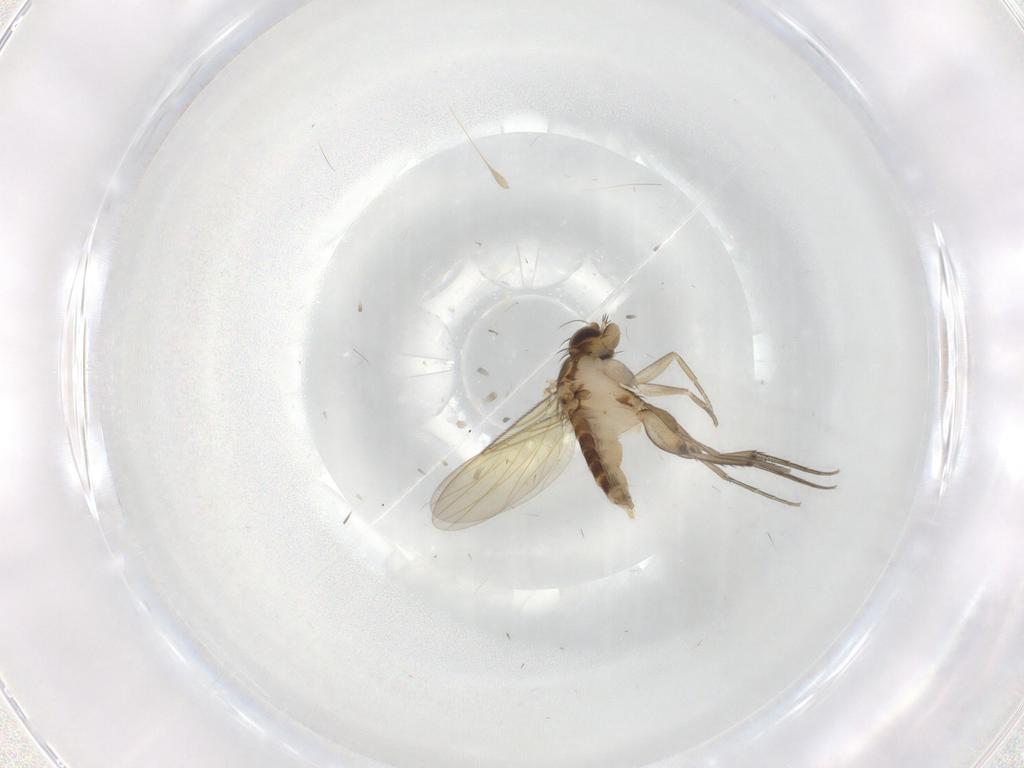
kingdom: Animalia
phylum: Arthropoda
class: Insecta
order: Diptera
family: Phoridae
